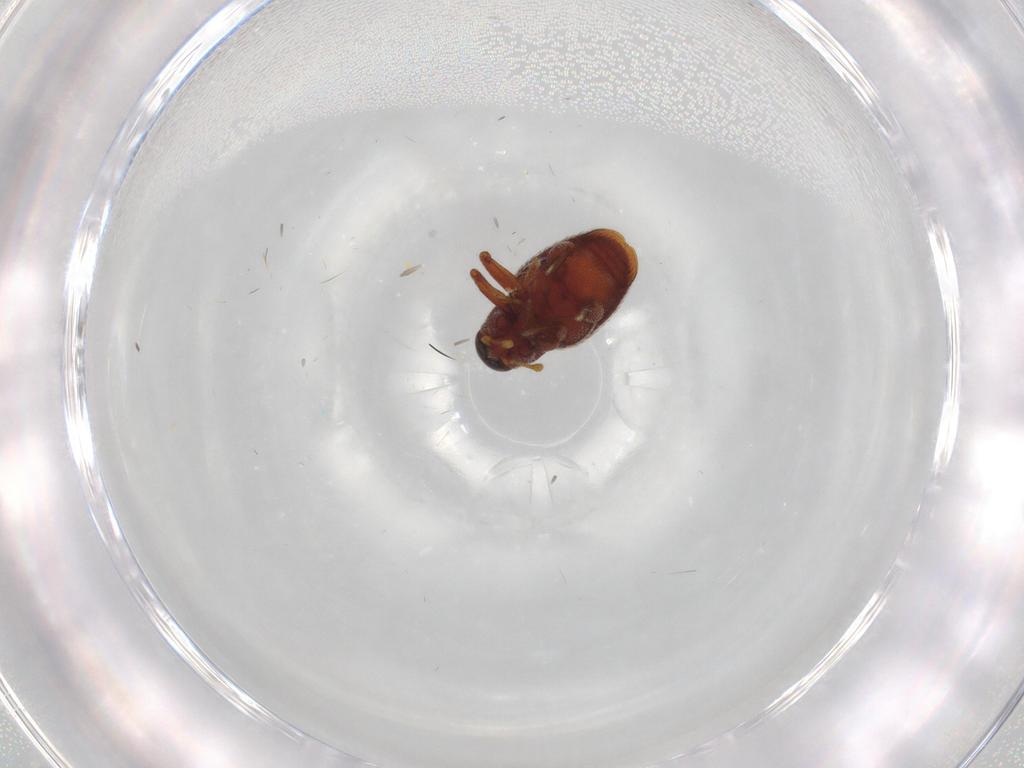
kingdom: Animalia
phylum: Arthropoda
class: Insecta
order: Coleoptera
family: Curculionidae
